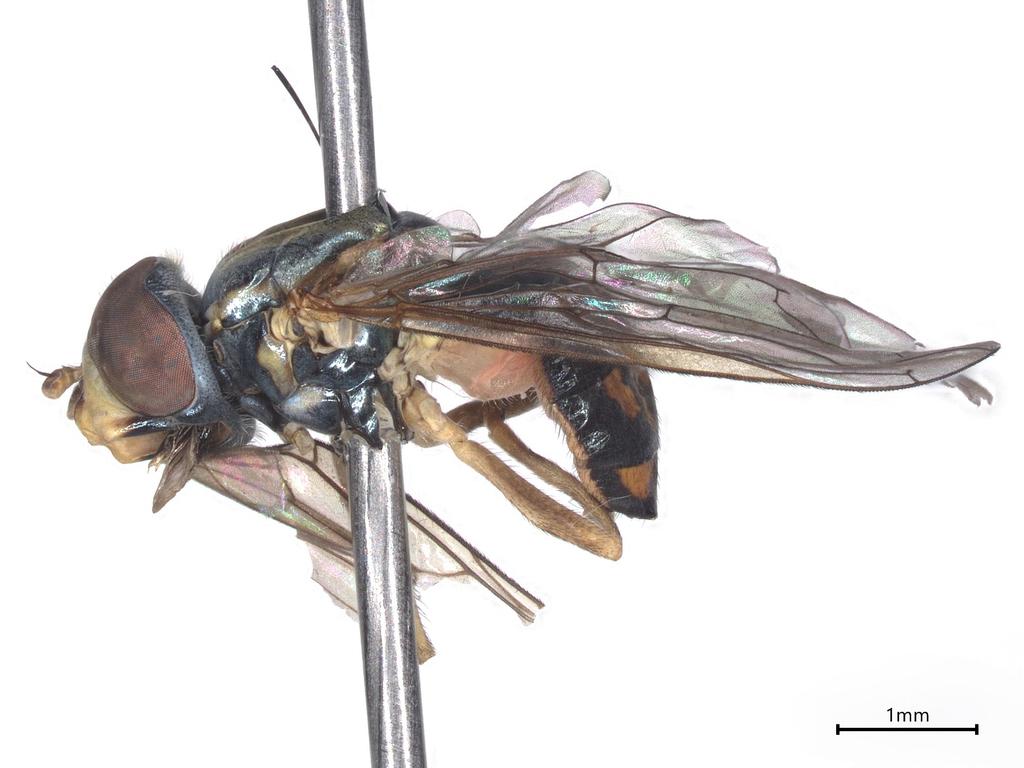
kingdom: Animalia
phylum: Arthropoda
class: Insecta
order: Diptera
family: Chironomidae
